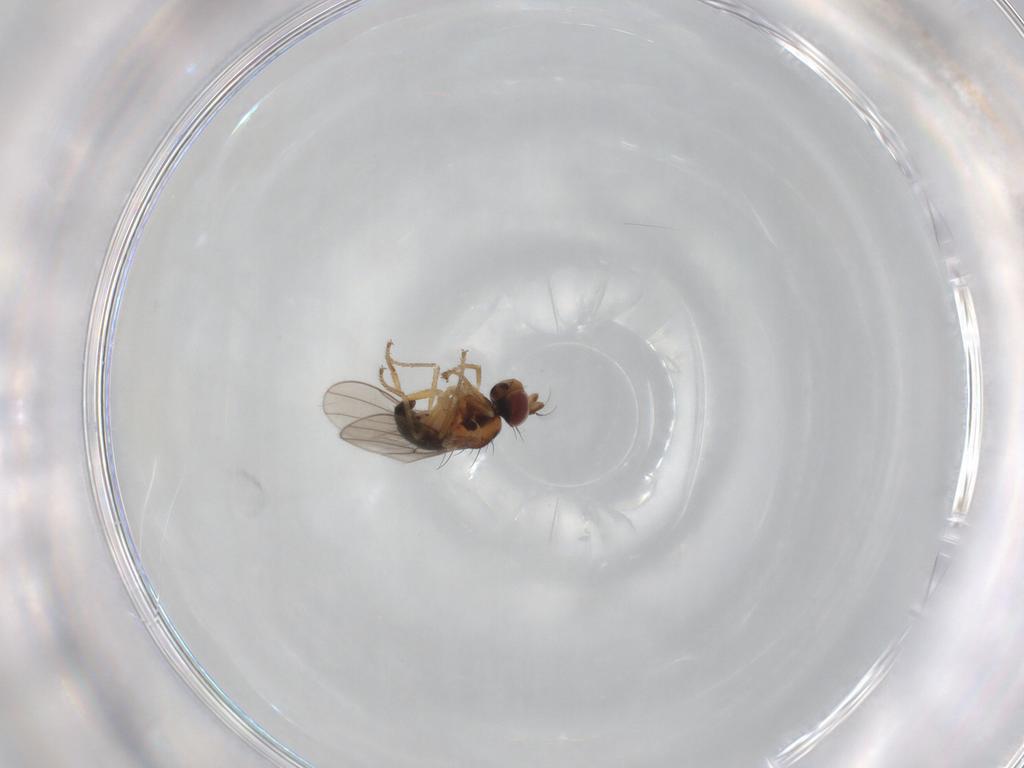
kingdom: Animalia
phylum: Arthropoda
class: Insecta
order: Diptera
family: Ephydridae
